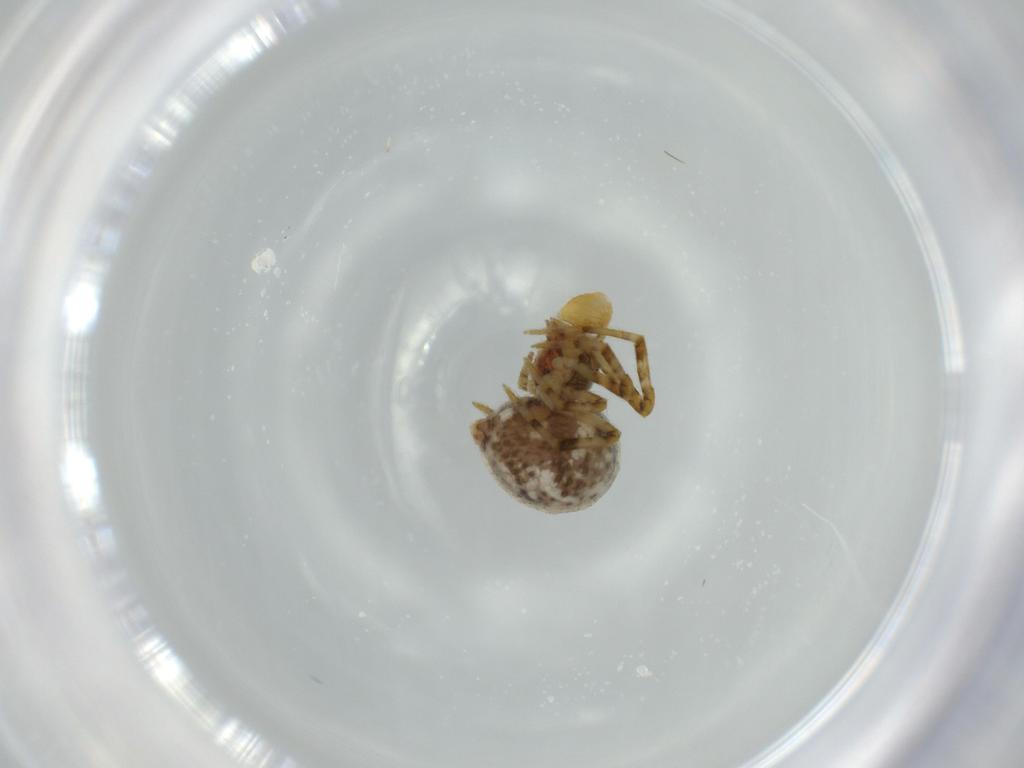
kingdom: Animalia
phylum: Arthropoda
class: Arachnida
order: Araneae
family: Theridiidae
